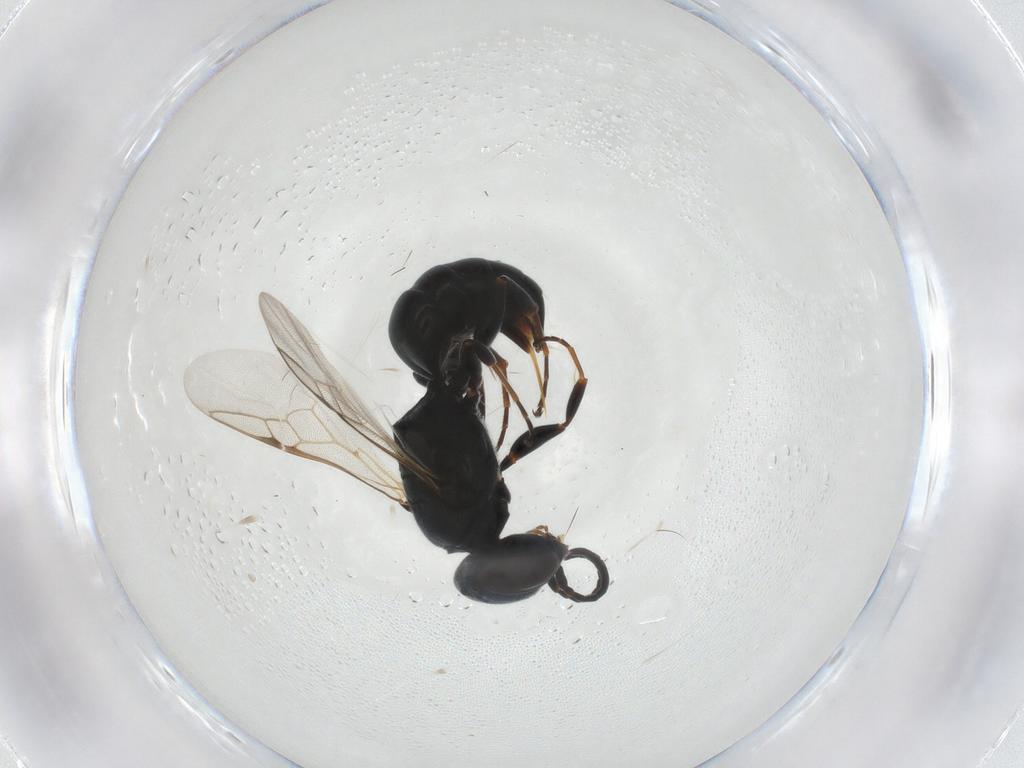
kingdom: Animalia
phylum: Arthropoda
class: Insecta
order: Hymenoptera
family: Crabronidae
